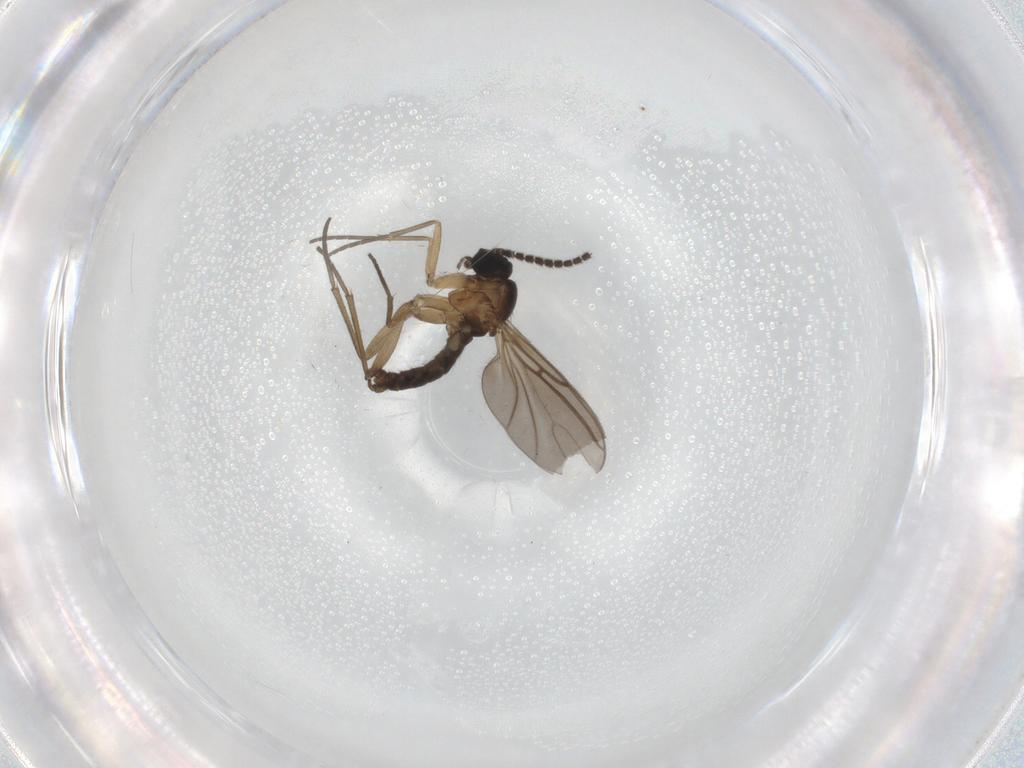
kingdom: Animalia
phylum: Arthropoda
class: Insecta
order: Diptera
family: Sciaridae
